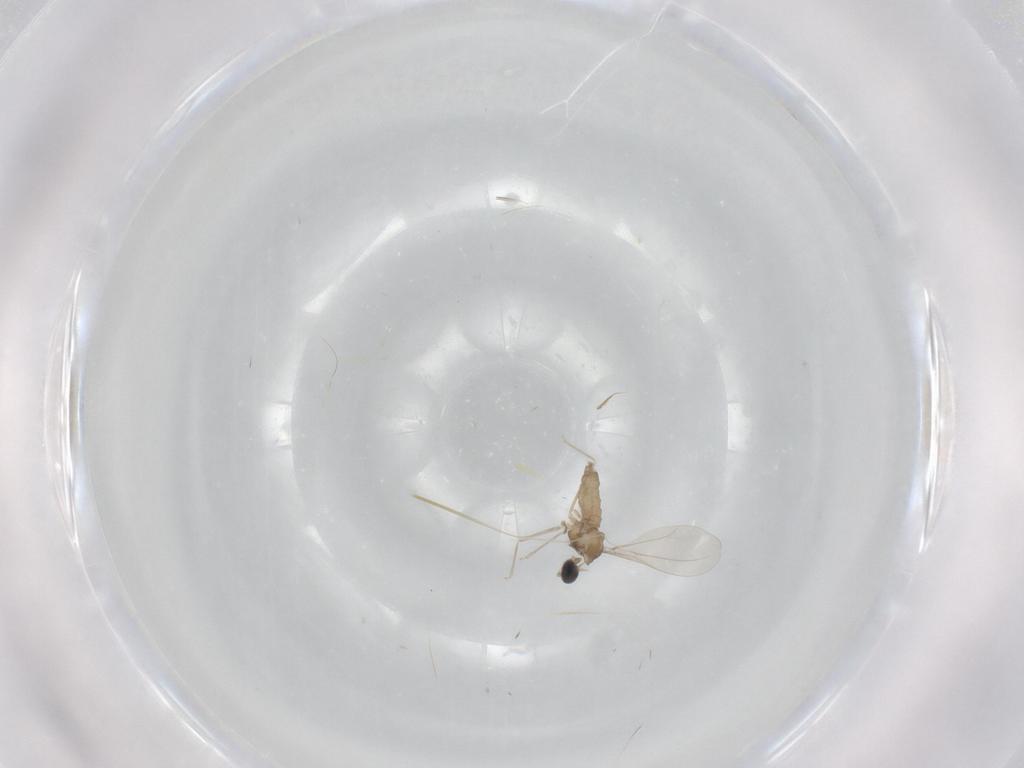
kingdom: Animalia
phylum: Arthropoda
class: Insecta
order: Diptera
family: Cecidomyiidae
